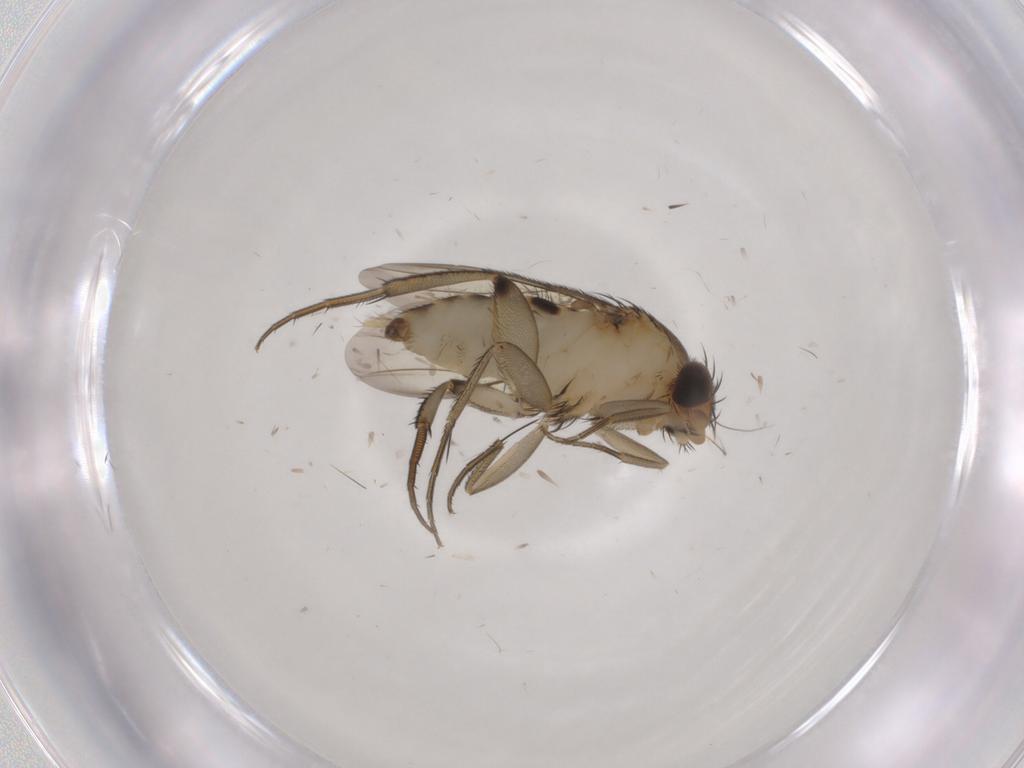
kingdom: Animalia
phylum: Arthropoda
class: Insecta
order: Diptera
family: Phoridae
